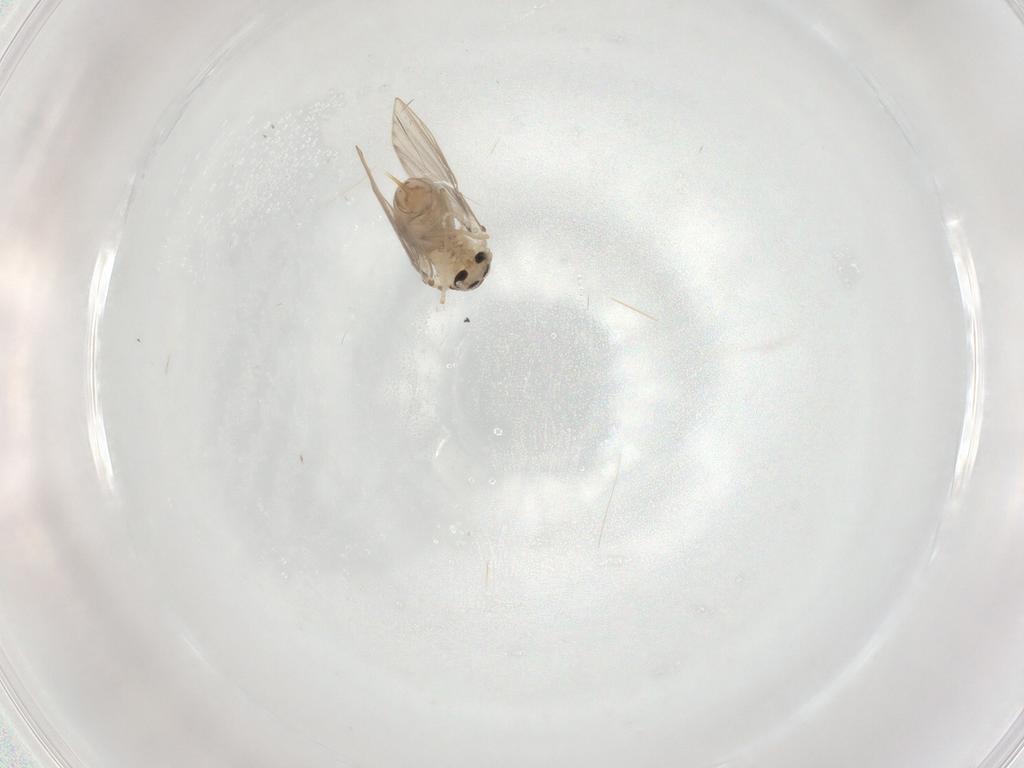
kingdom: Animalia
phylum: Arthropoda
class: Insecta
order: Diptera
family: Psychodidae
